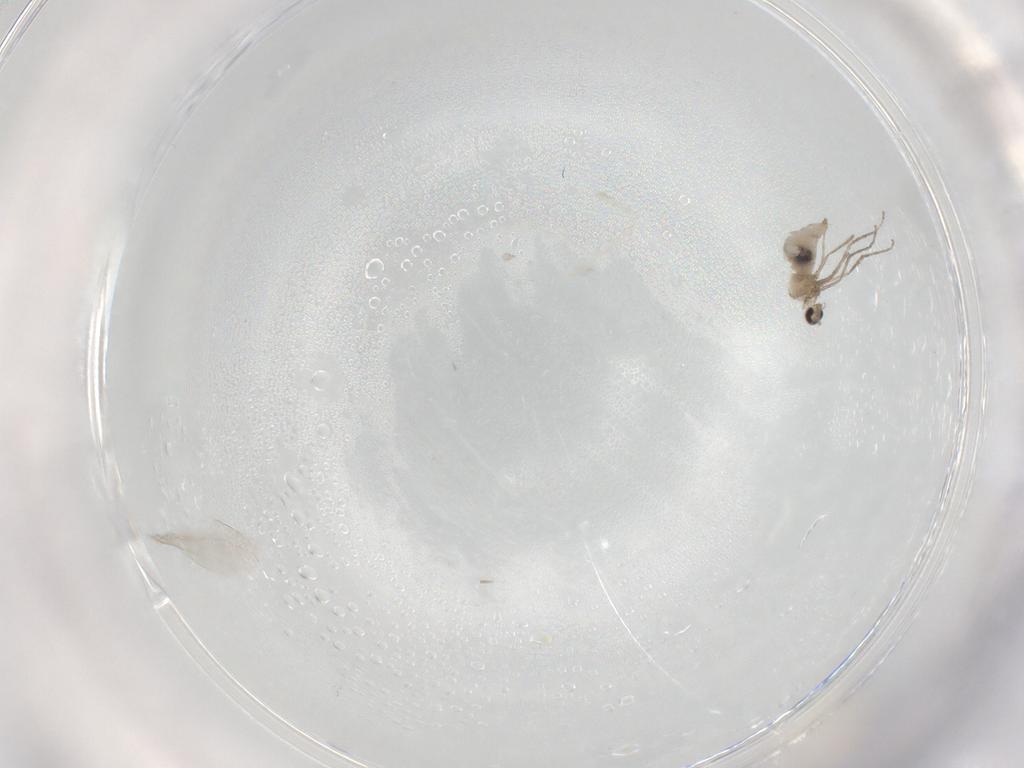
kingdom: Animalia
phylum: Arthropoda
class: Insecta
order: Diptera
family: Cecidomyiidae
